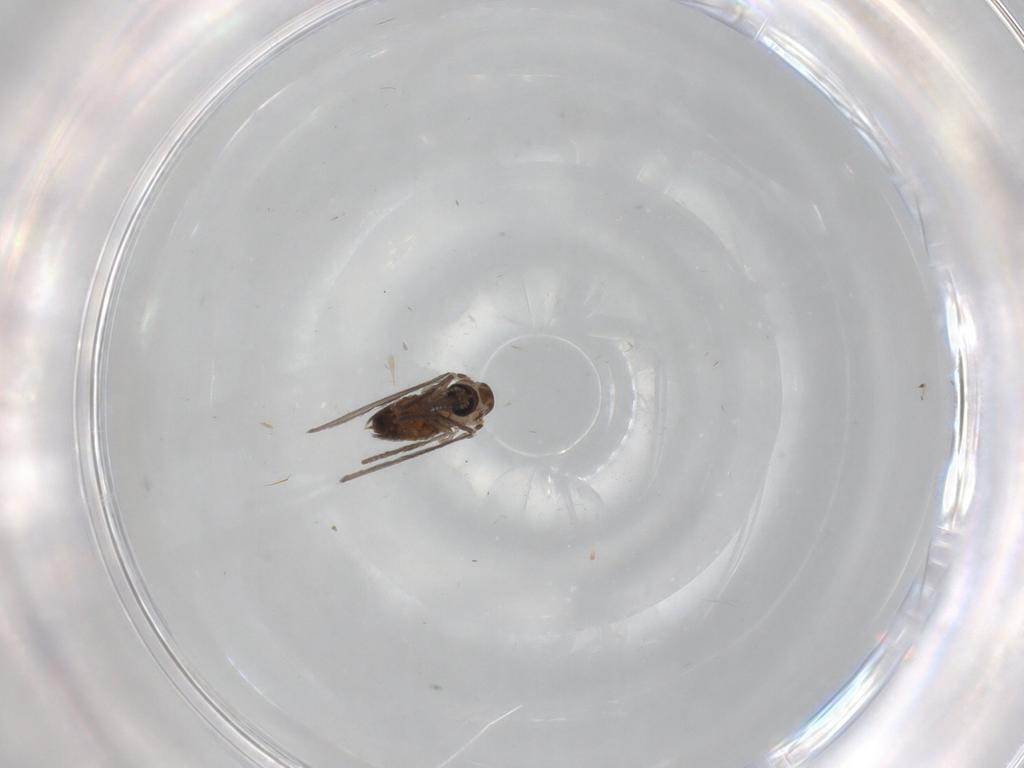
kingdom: Animalia
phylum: Arthropoda
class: Insecta
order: Diptera
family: Psychodidae
